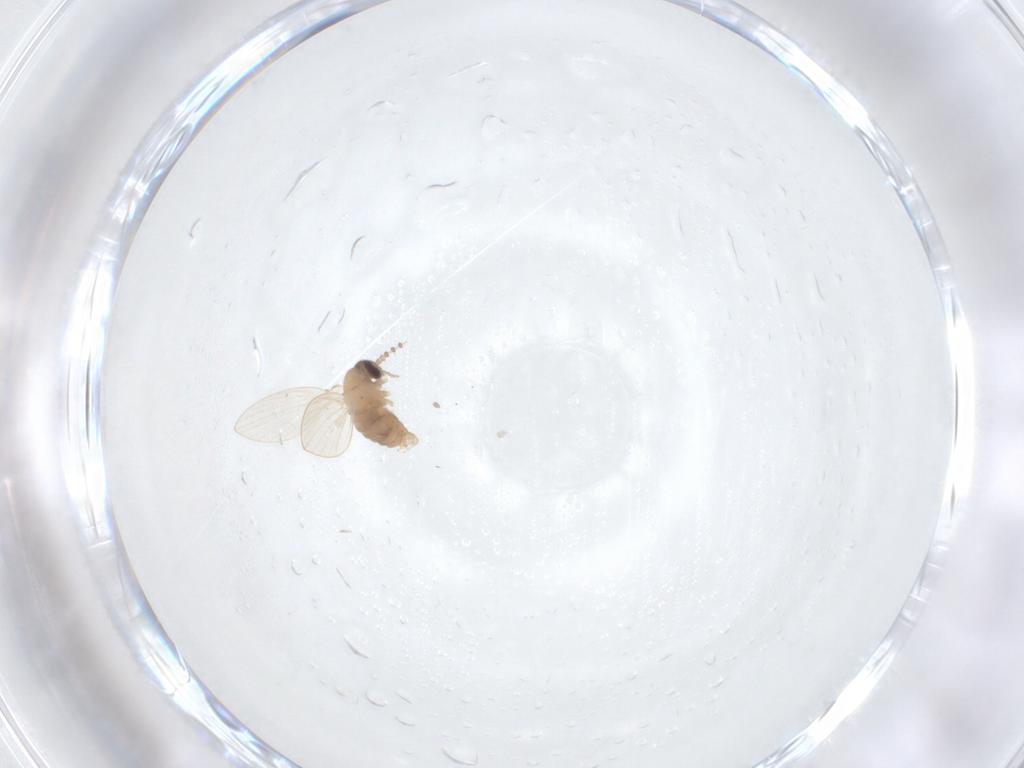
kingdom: Animalia
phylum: Arthropoda
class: Insecta
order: Diptera
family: Psychodidae
